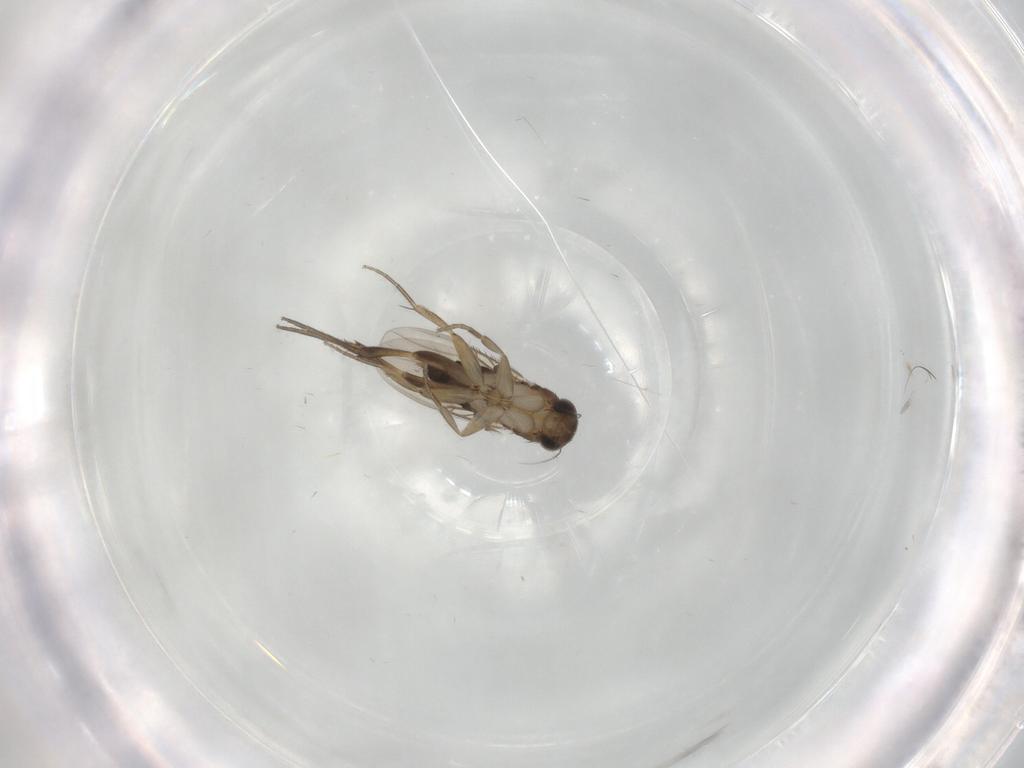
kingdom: Animalia
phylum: Arthropoda
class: Insecta
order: Diptera
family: Phoridae
